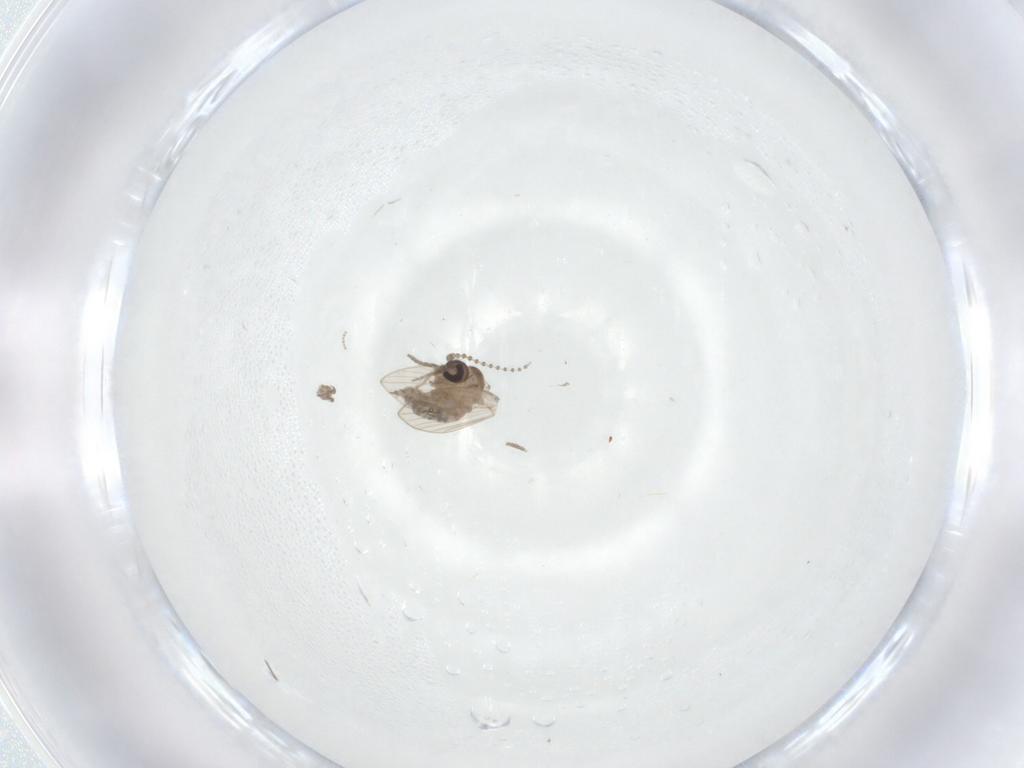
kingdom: Animalia
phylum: Arthropoda
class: Insecta
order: Diptera
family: Psychodidae
